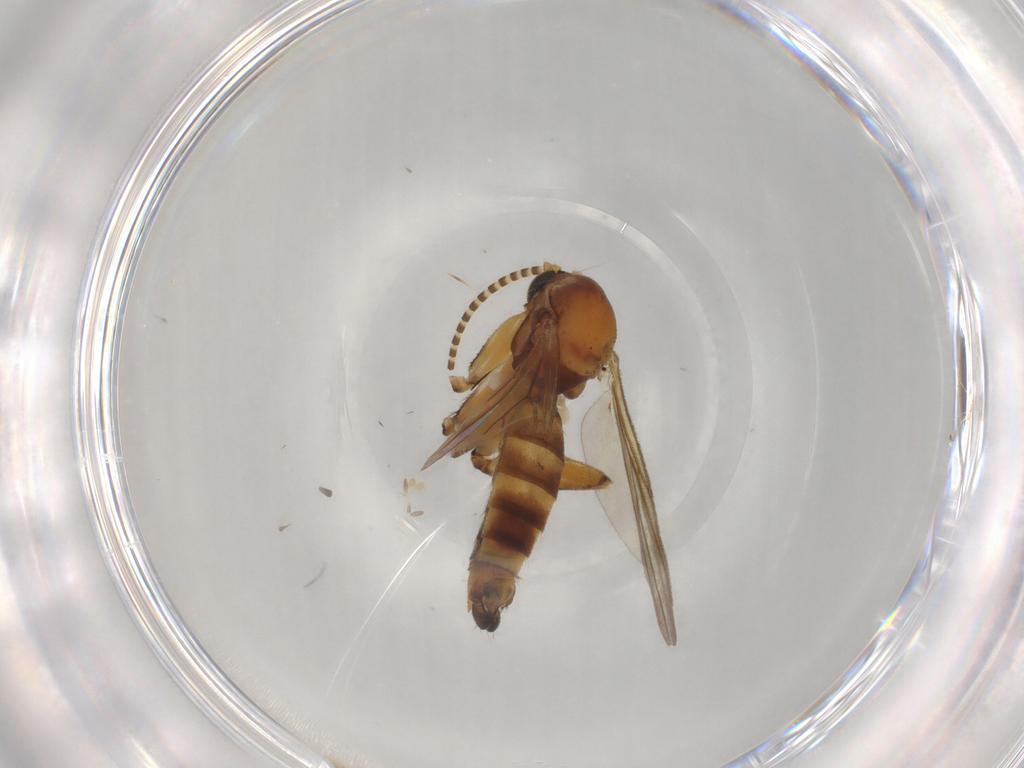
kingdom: Animalia
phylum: Arthropoda
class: Insecta
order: Diptera
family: Mycetophilidae
